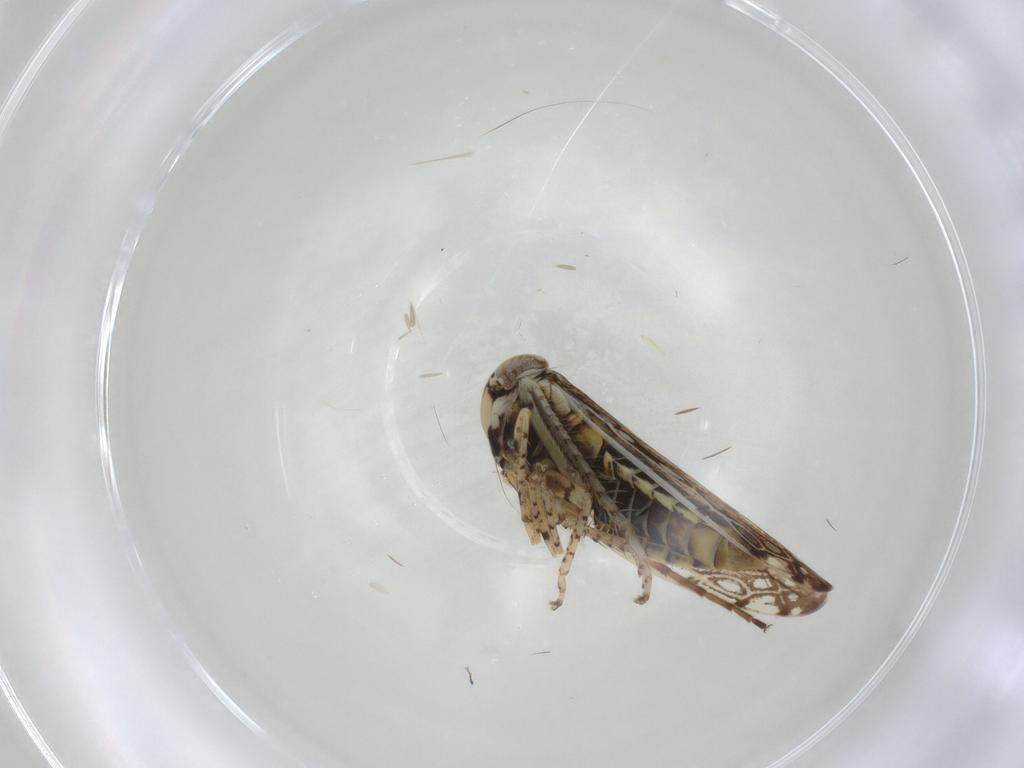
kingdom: Animalia
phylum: Arthropoda
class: Insecta
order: Hemiptera
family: Cicadellidae
